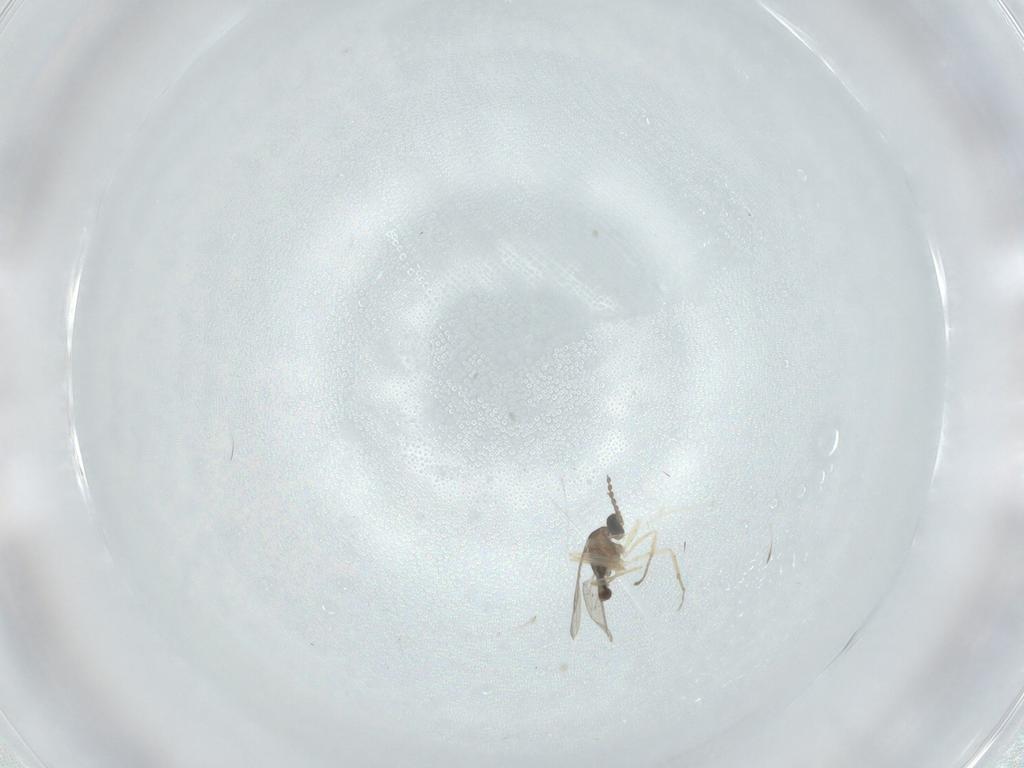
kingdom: Animalia
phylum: Arthropoda
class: Insecta
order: Diptera
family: Cecidomyiidae
